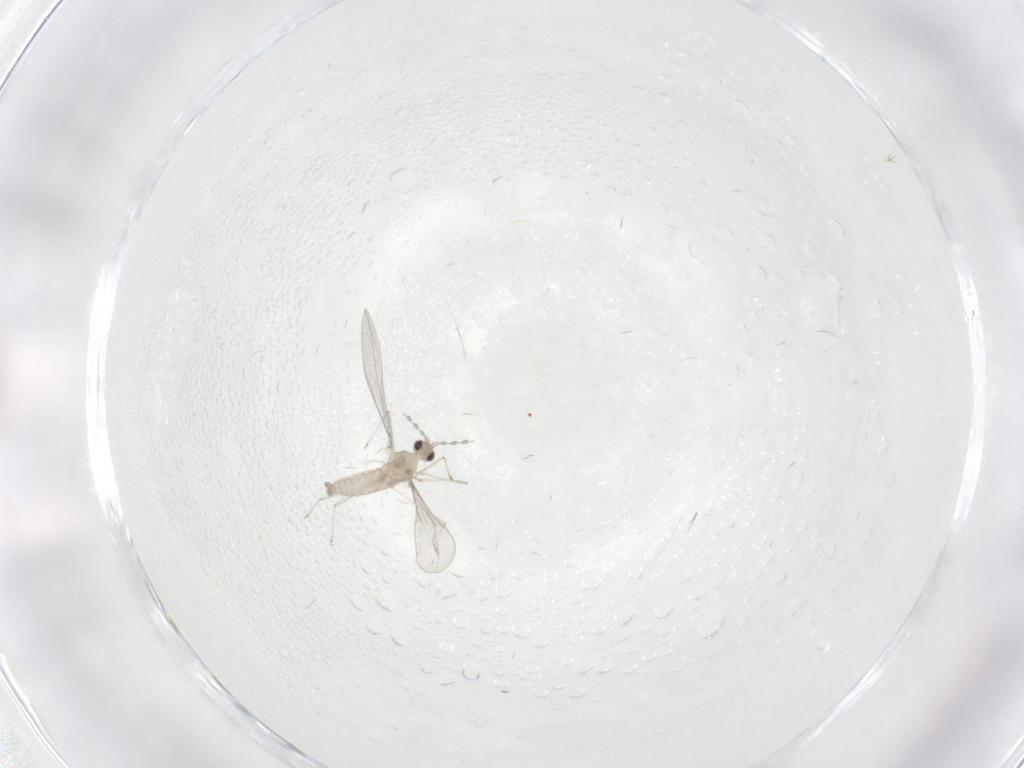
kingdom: Animalia
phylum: Arthropoda
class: Insecta
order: Diptera
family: Cecidomyiidae
